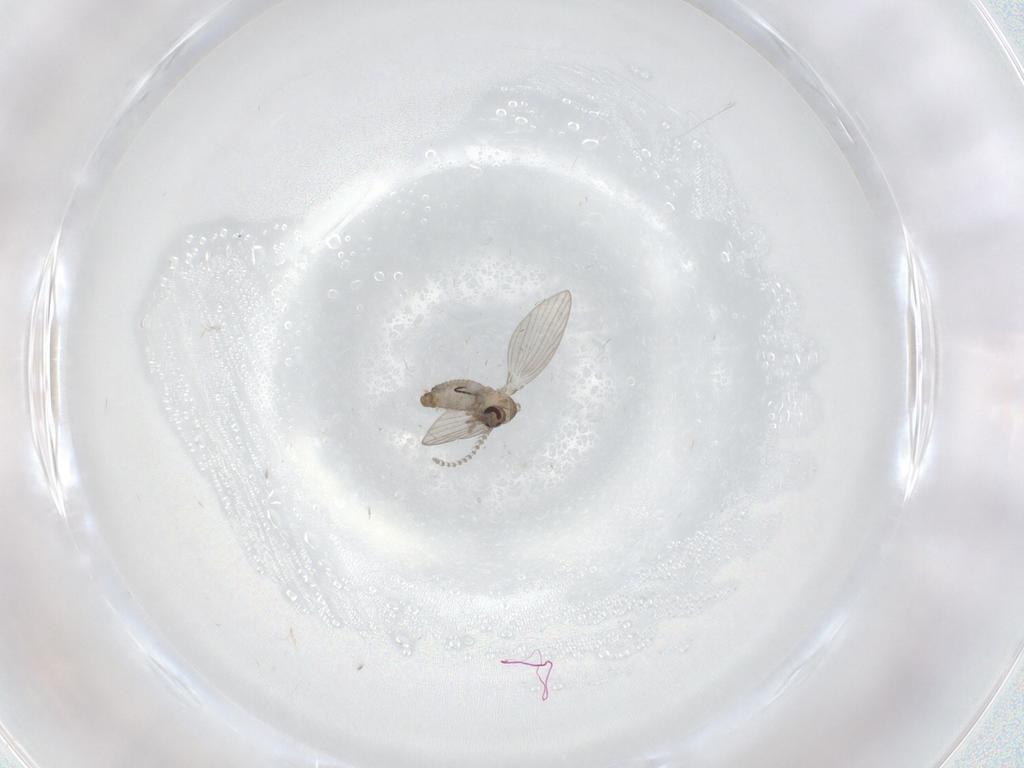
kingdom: Animalia
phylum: Arthropoda
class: Insecta
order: Diptera
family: Psychodidae
